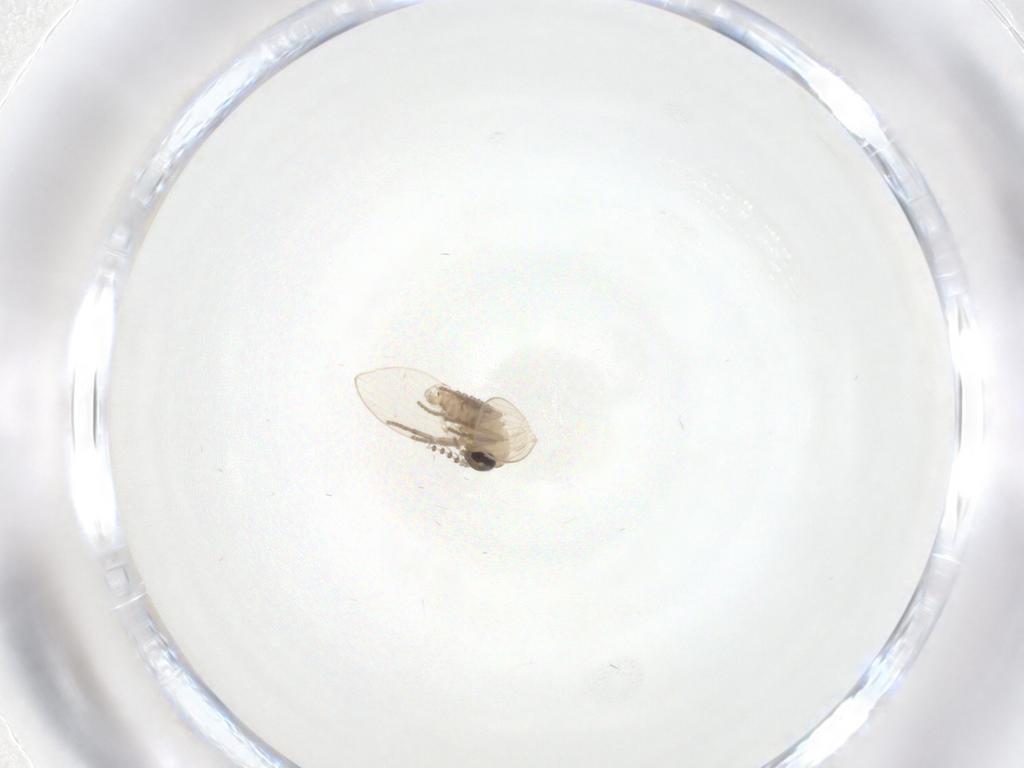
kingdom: Animalia
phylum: Arthropoda
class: Insecta
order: Diptera
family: Psychodidae
